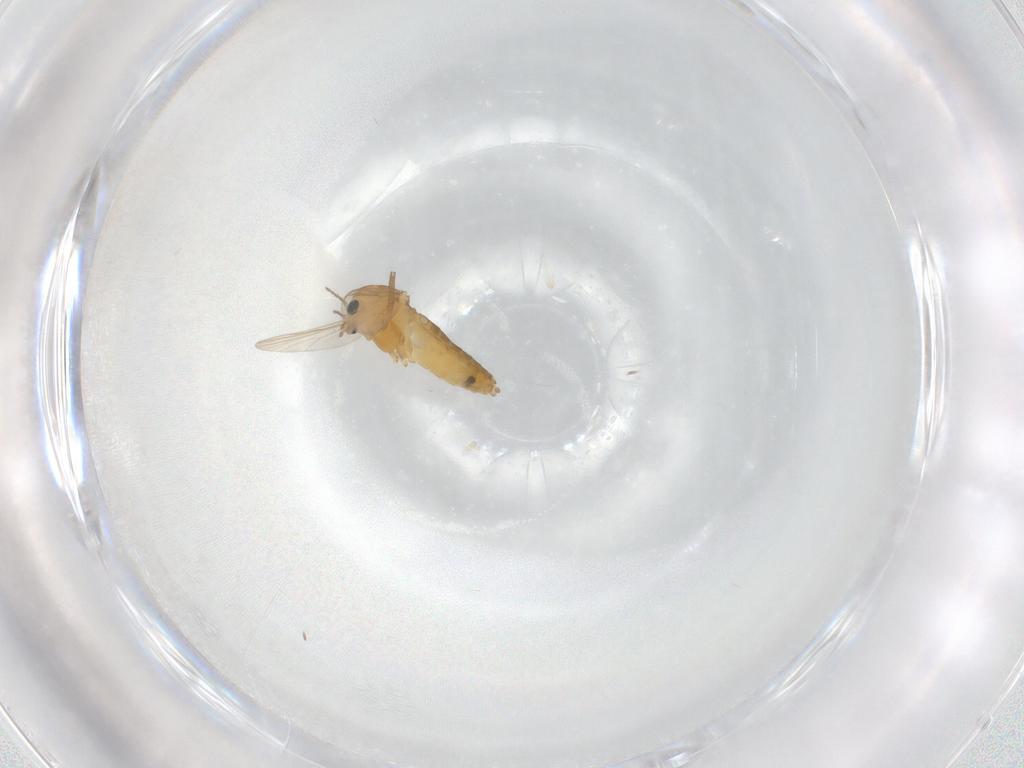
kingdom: Animalia
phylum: Arthropoda
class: Insecta
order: Diptera
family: Chironomidae
